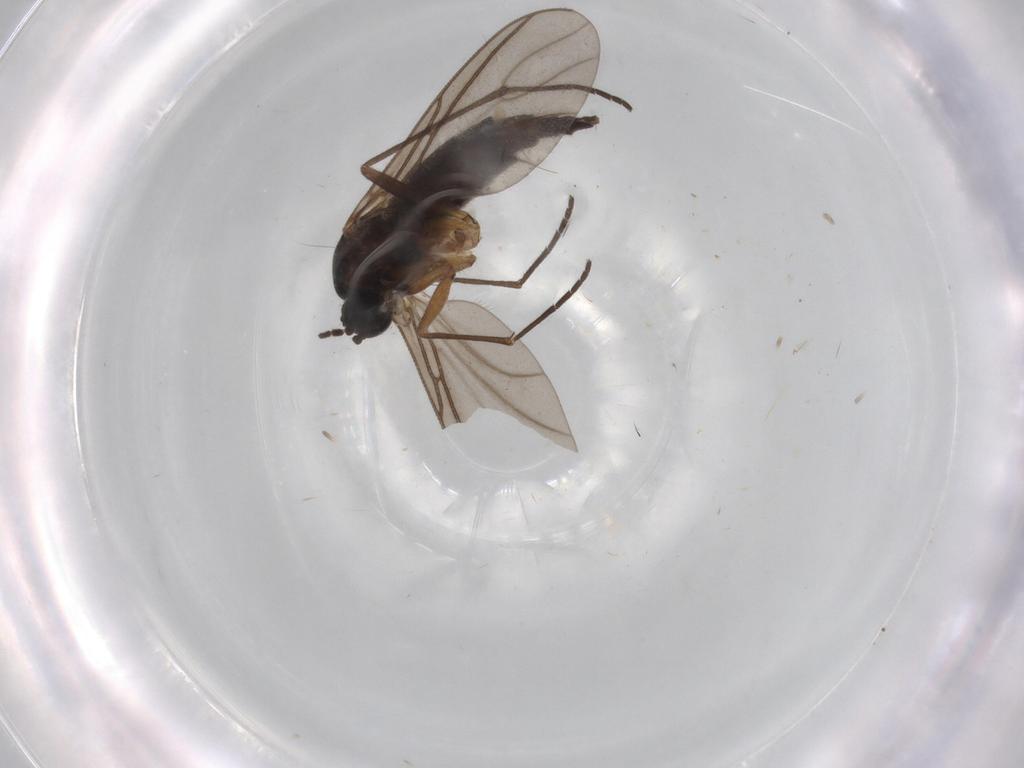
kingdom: Animalia
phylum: Arthropoda
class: Insecta
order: Diptera
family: Sciaridae
